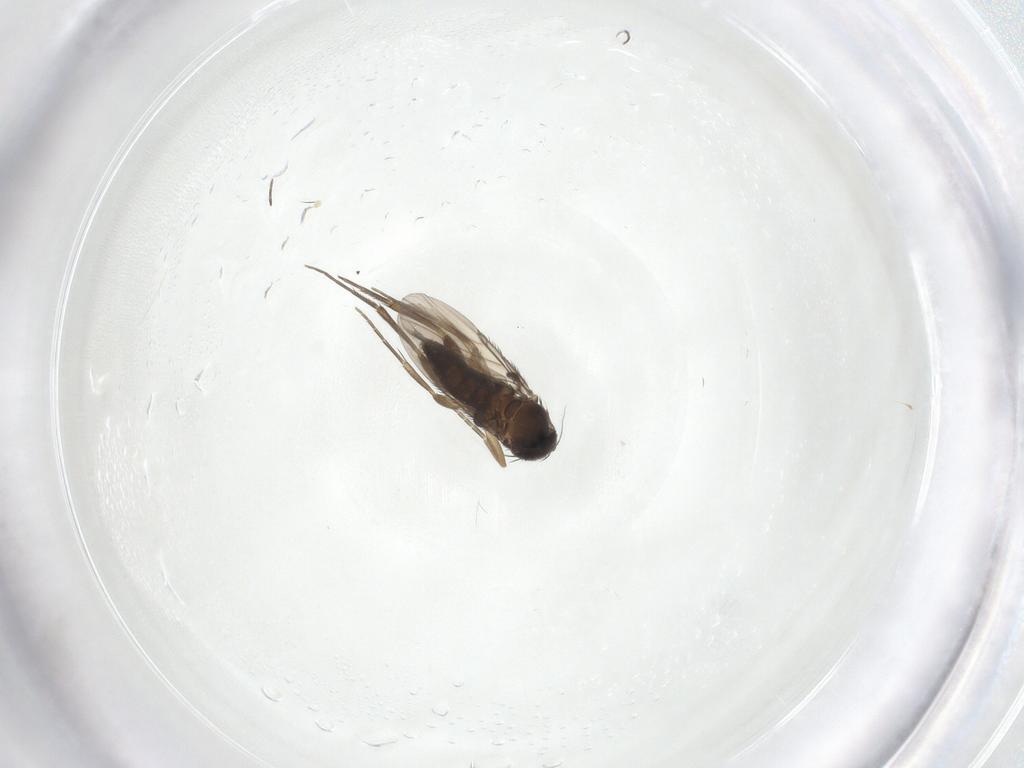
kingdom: Animalia
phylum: Arthropoda
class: Insecta
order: Diptera
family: Phoridae
